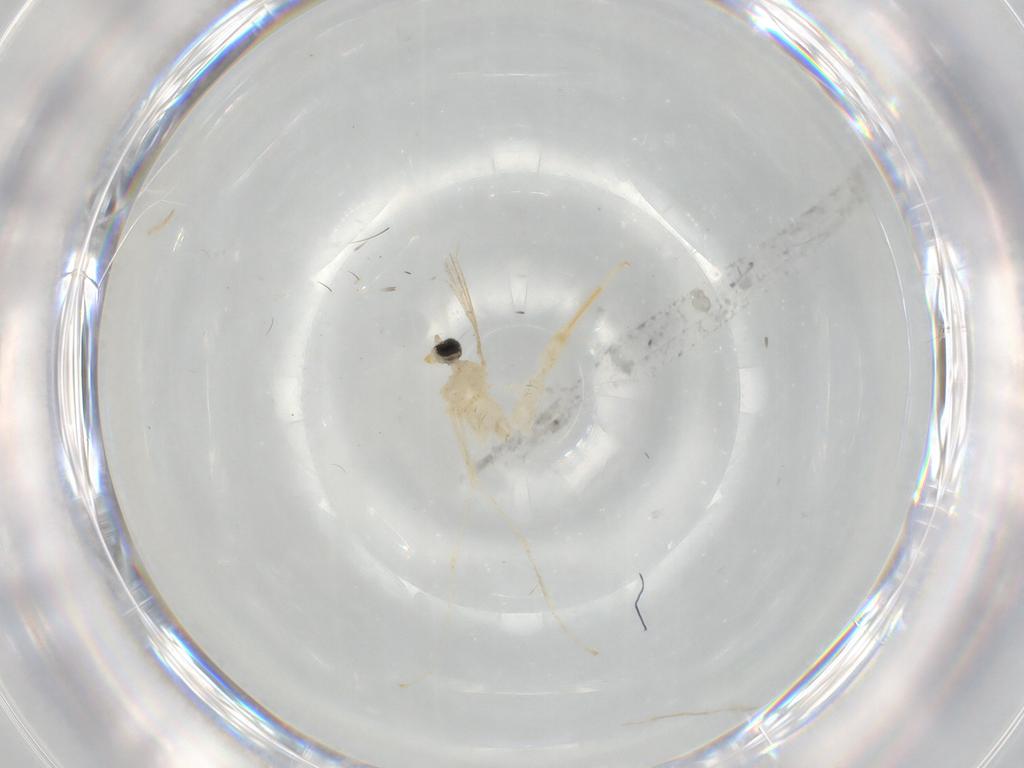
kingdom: Animalia
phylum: Arthropoda
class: Insecta
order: Diptera
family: Cecidomyiidae
